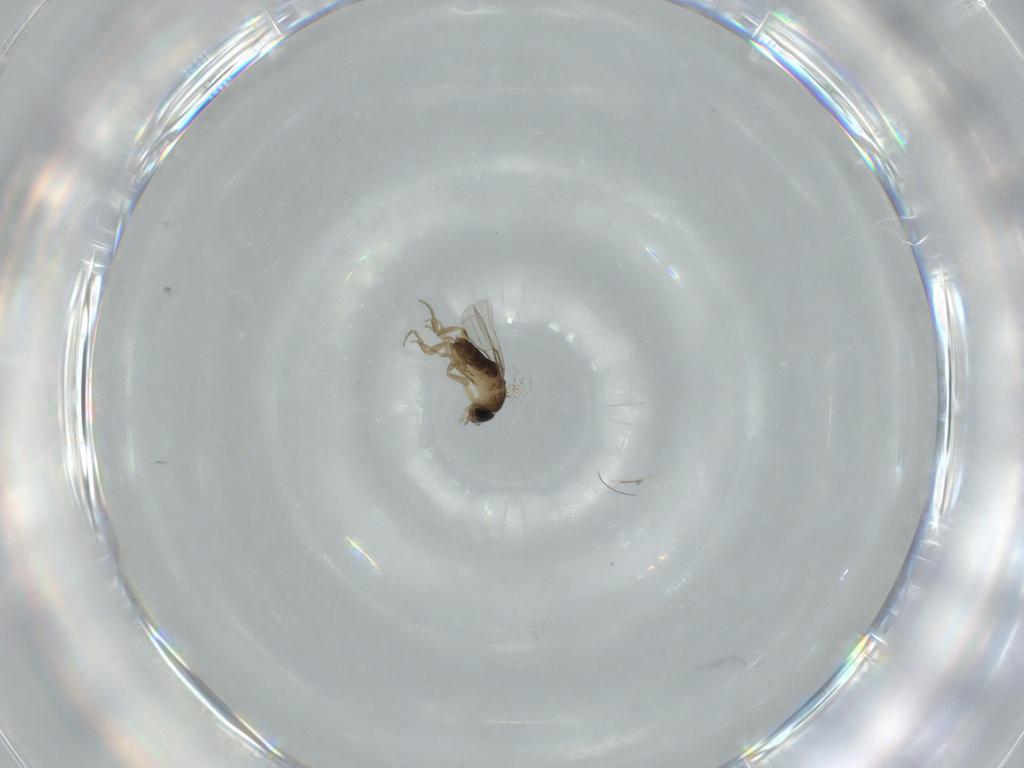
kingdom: Animalia
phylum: Arthropoda
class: Insecta
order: Diptera
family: Phoridae
